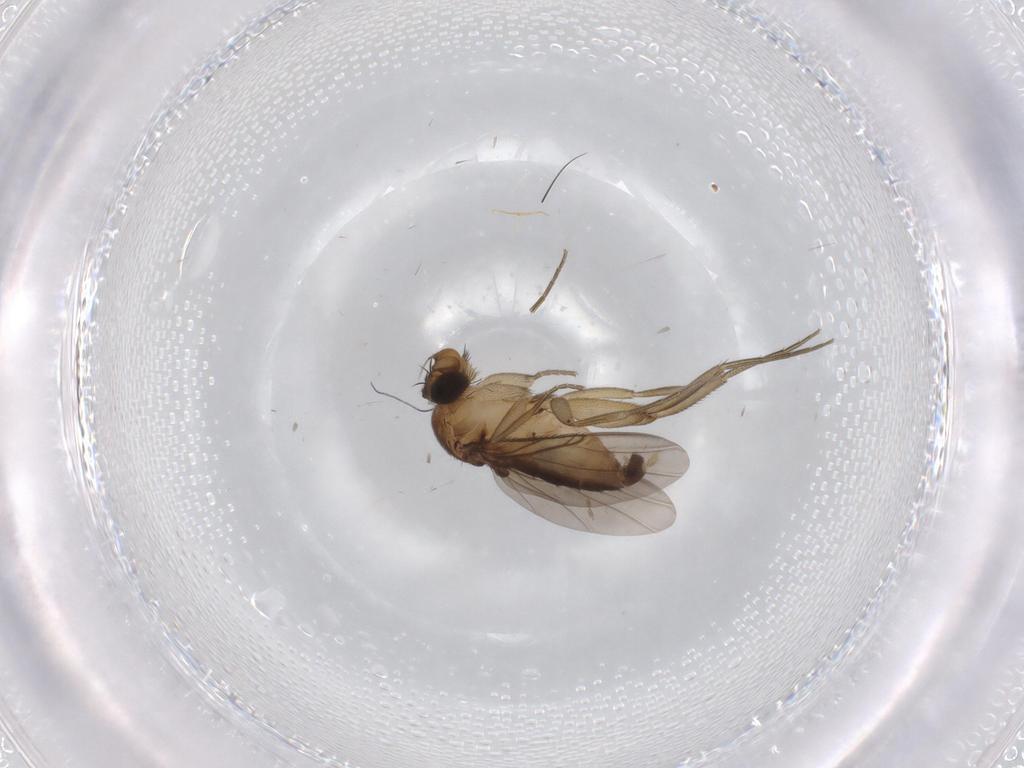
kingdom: Animalia
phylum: Arthropoda
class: Insecta
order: Diptera
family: Phoridae
